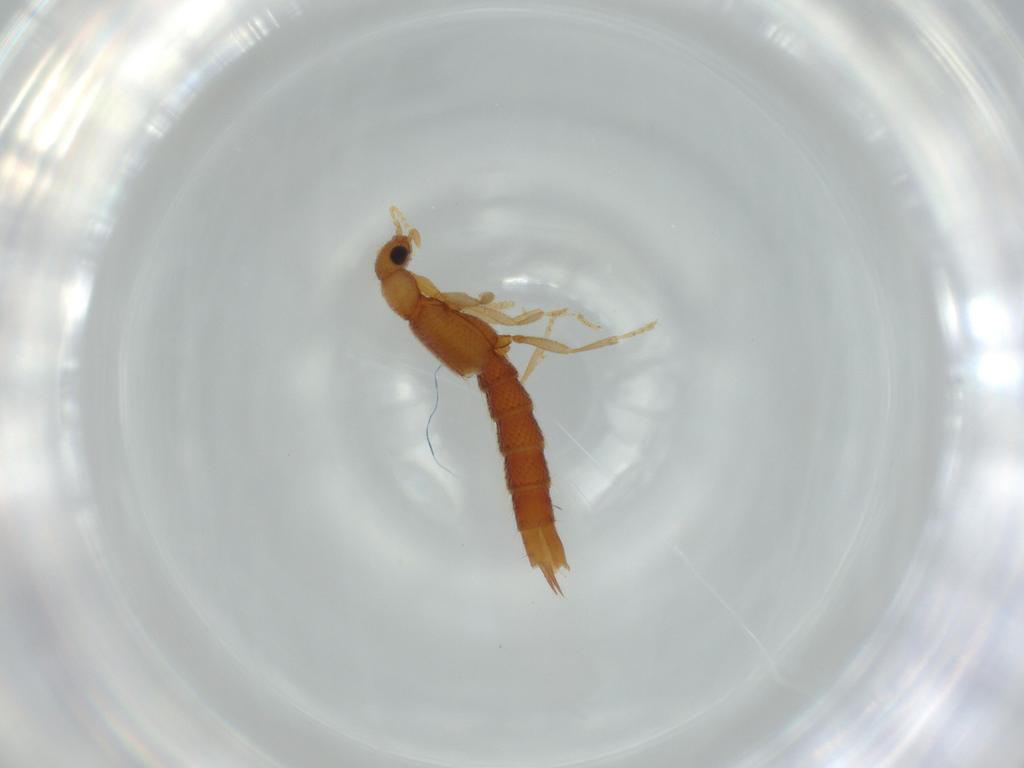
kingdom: Animalia
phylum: Arthropoda
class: Insecta
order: Coleoptera
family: Staphylinidae
